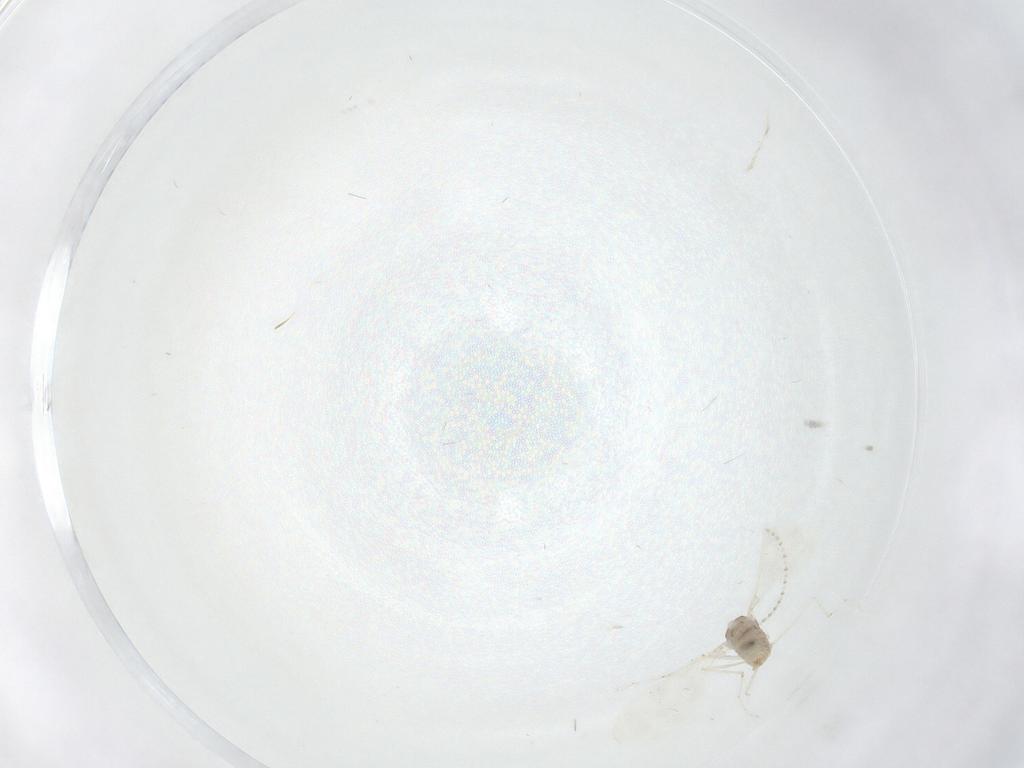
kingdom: Animalia
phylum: Arthropoda
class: Insecta
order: Diptera
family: Cecidomyiidae
